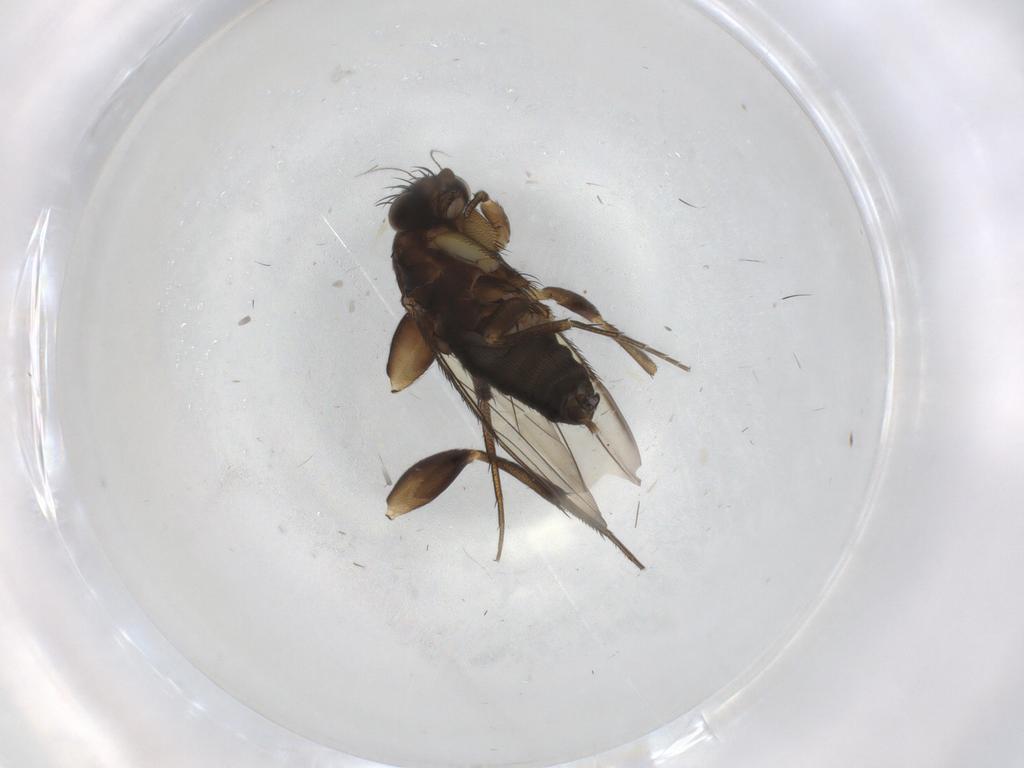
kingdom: Animalia
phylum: Arthropoda
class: Insecta
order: Diptera
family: Phoridae
